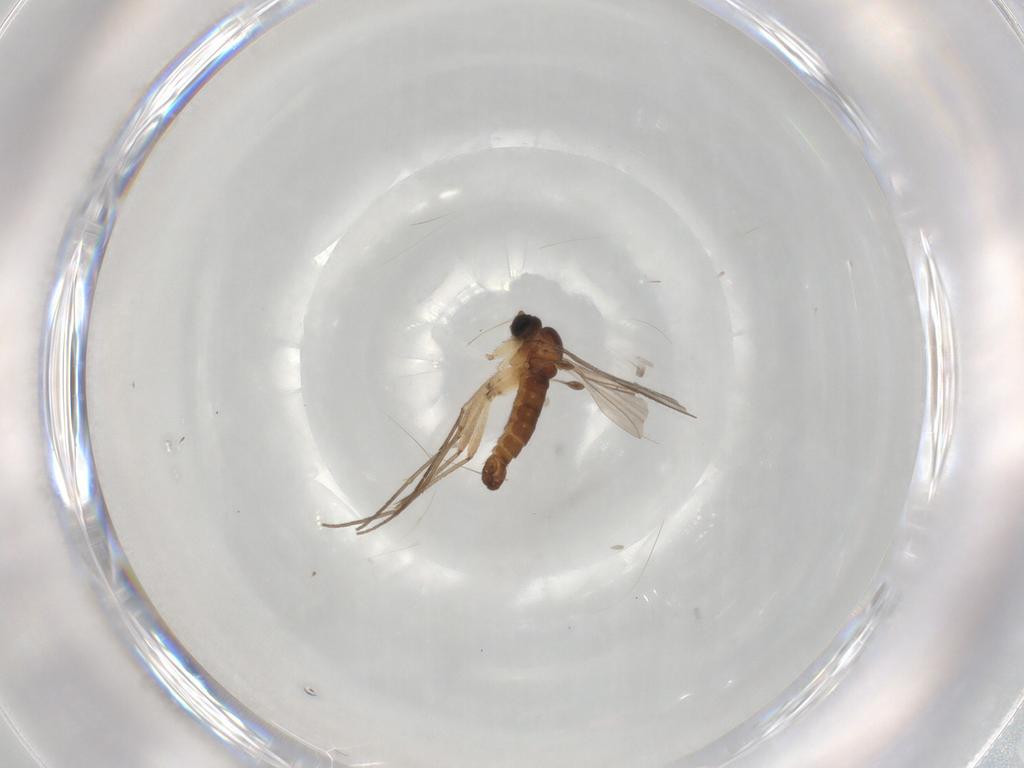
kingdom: Animalia
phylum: Arthropoda
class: Insecta
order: Diptera
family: Sciaridae
